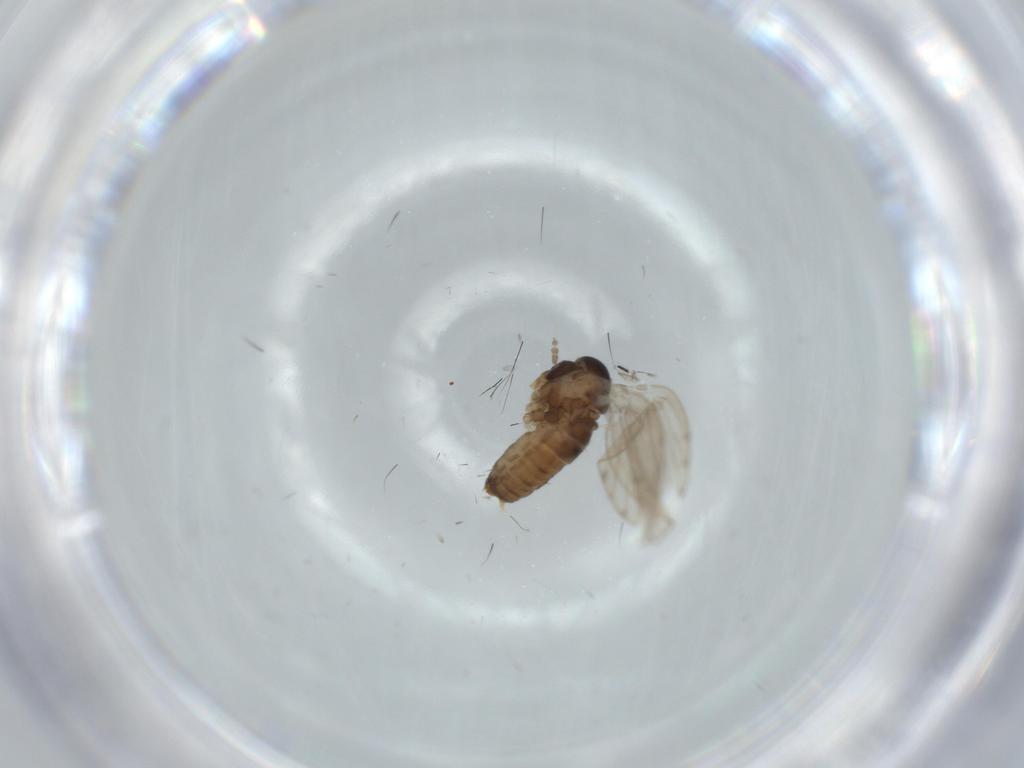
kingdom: Animalia
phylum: Arthropoda
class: Insecta
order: Diptera
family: Psychodidae
